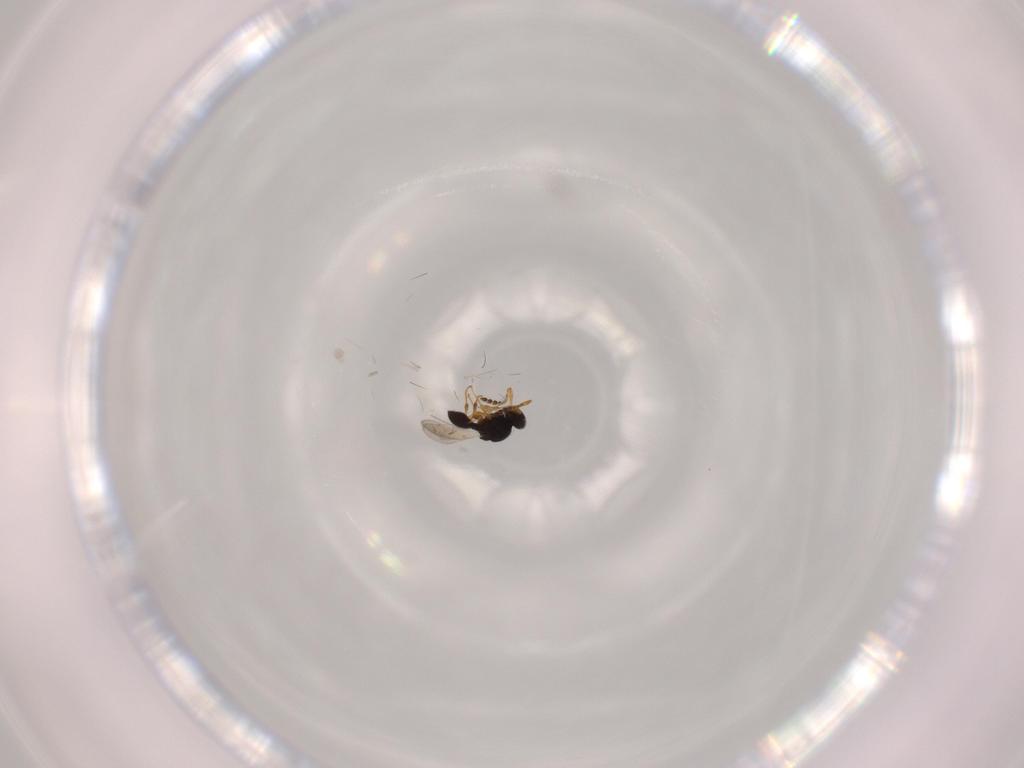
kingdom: Animalia
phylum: Arthropoda
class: Insecta
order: Hymenoptera
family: Platygastridae
